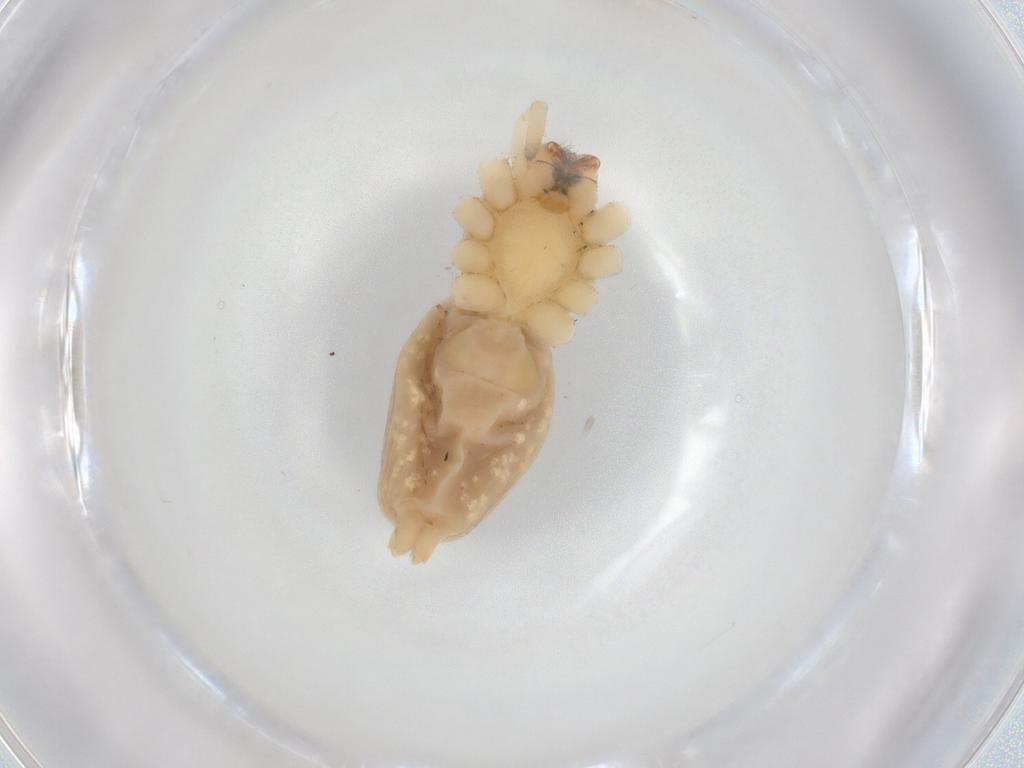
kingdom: Animalia
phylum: Arthropoda
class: Arachnida
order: Araneae
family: Cheiracanthiidae
